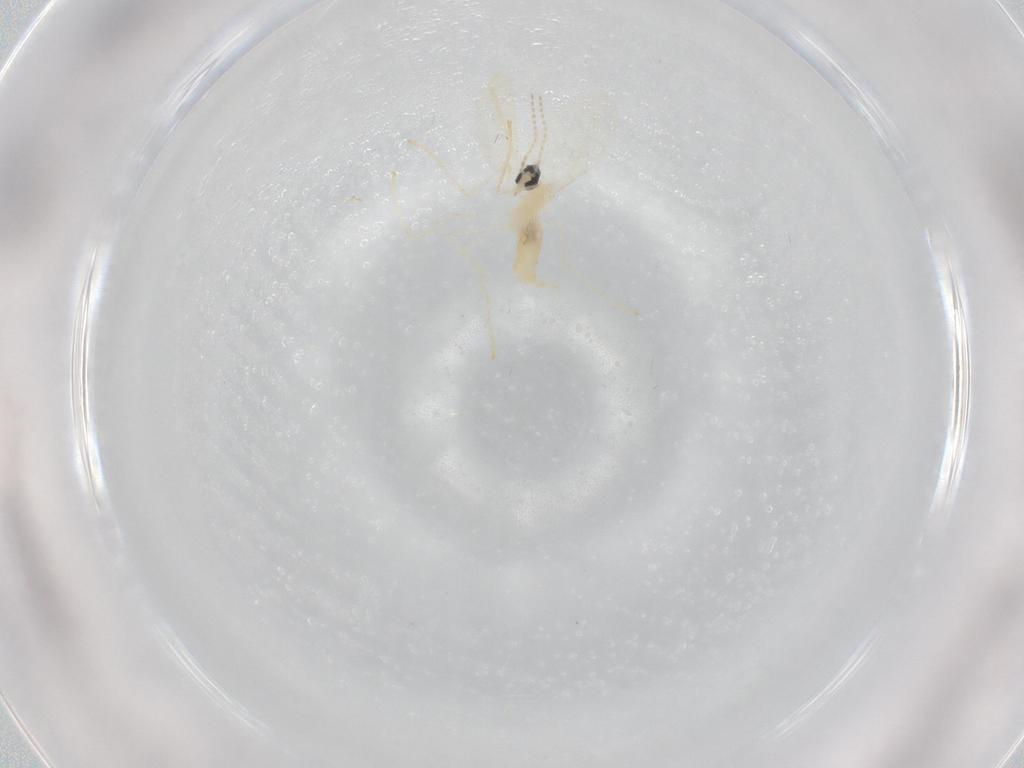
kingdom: Animalia
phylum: Arthropoda
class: Insecta
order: Diptera
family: Cecidomyiidae
